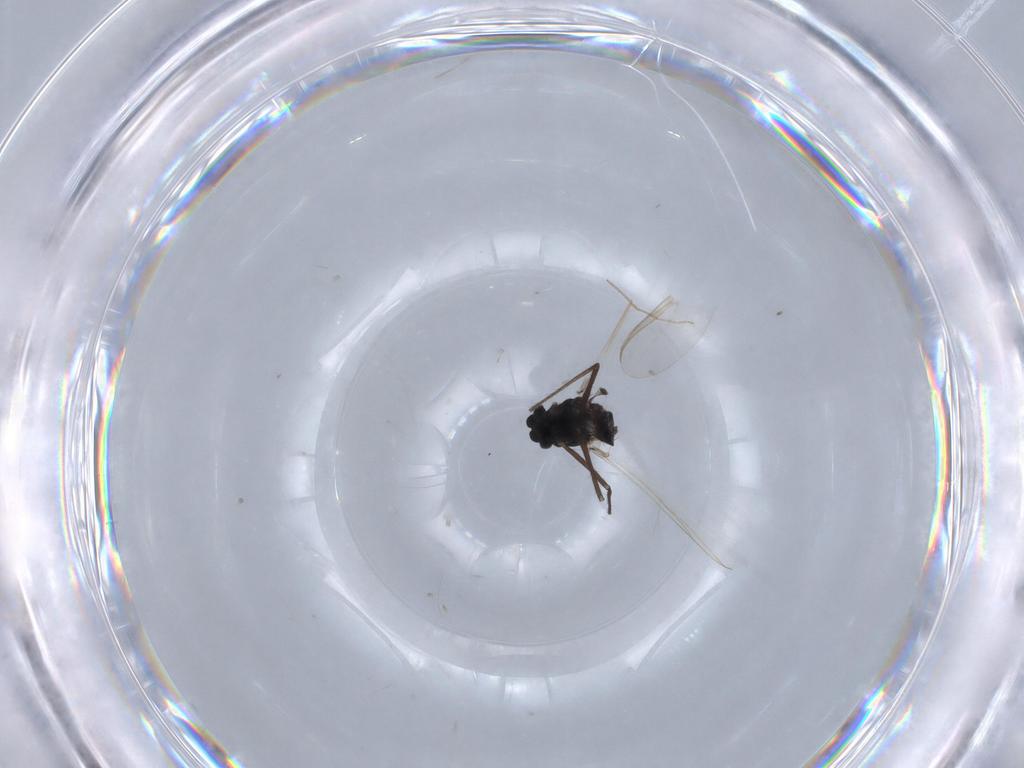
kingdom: Animalia
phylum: Arthropoda
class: Insecta
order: Diptera
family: Chironomidae
